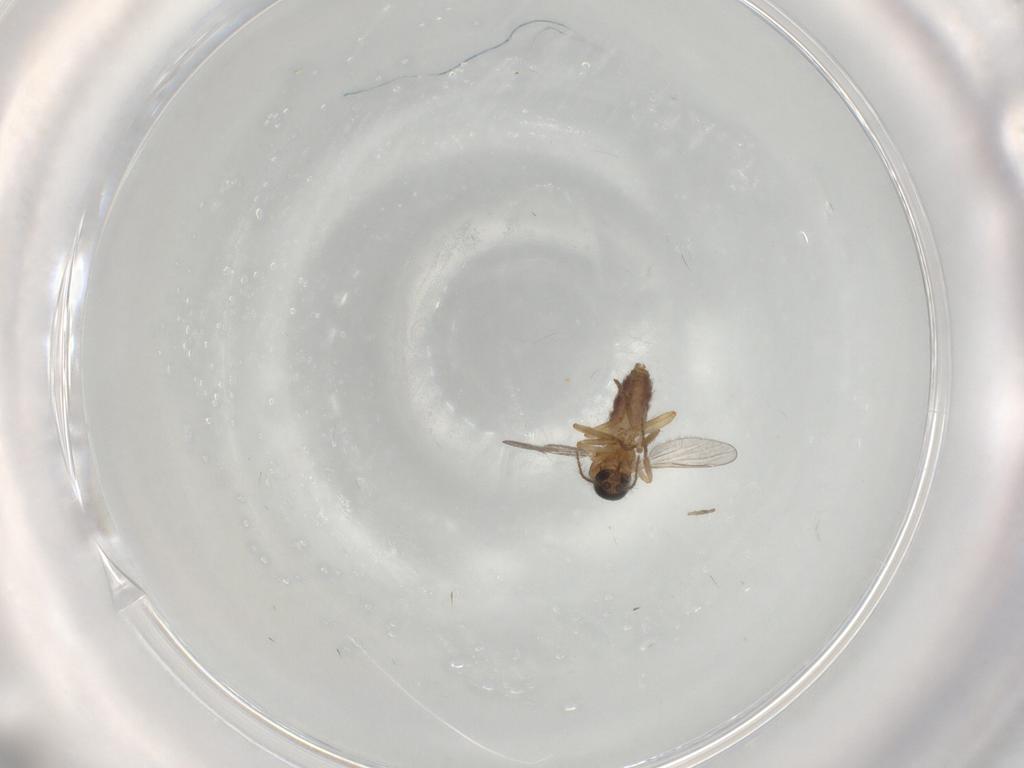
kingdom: Animalia
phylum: Arthropoda
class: Insecta
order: Diptera
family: Ceratopogonidae
